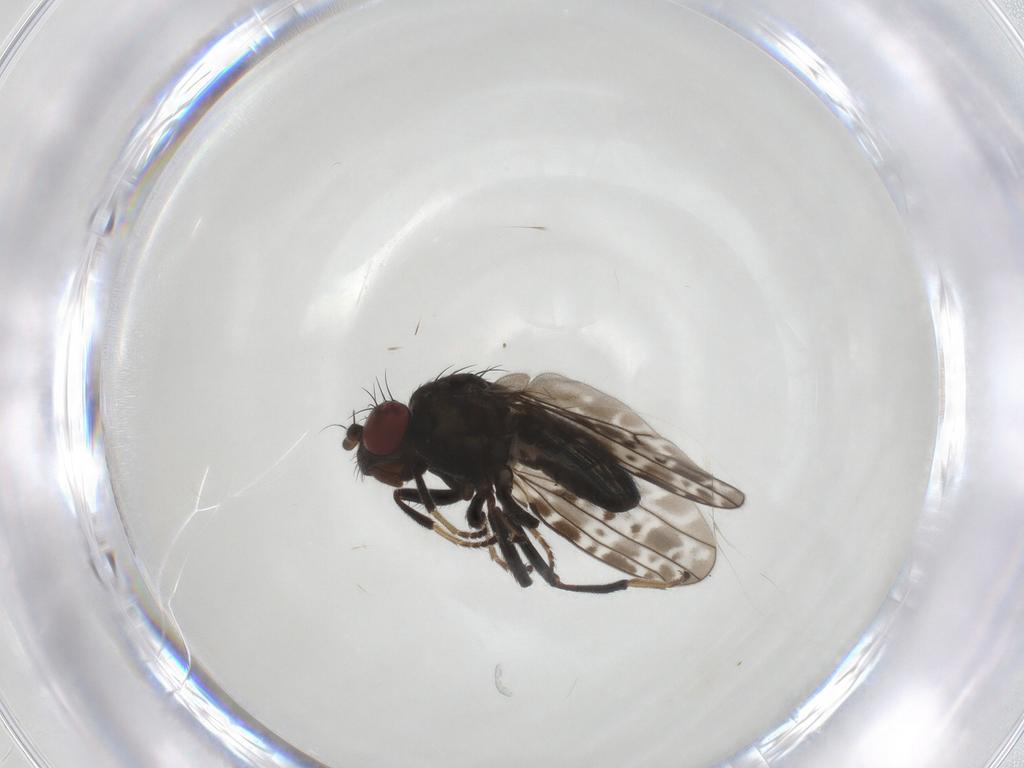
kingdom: Animalia
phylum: Arthropoda
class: Insecta
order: Diptera
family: Ephydridae
